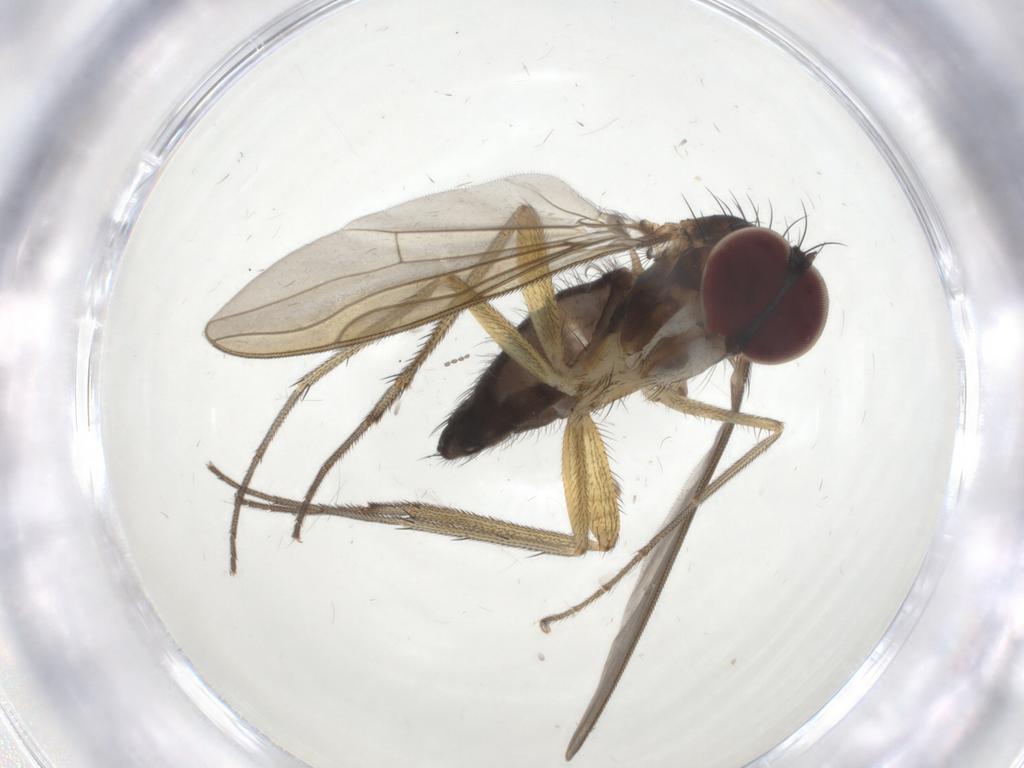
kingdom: Animalia
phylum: Arthropoda
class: Insecta
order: Diptera
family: Dolichopodidae
